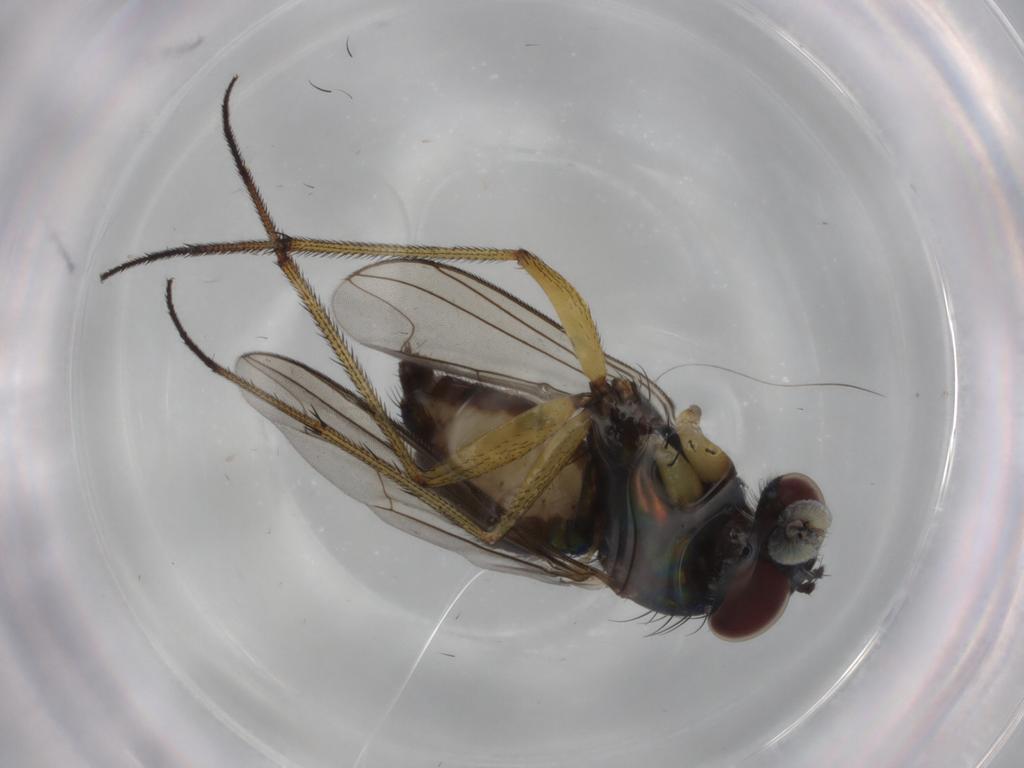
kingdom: Animalia
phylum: Arthropoda
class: Insecta
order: Diptera
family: Dolichopodidae
